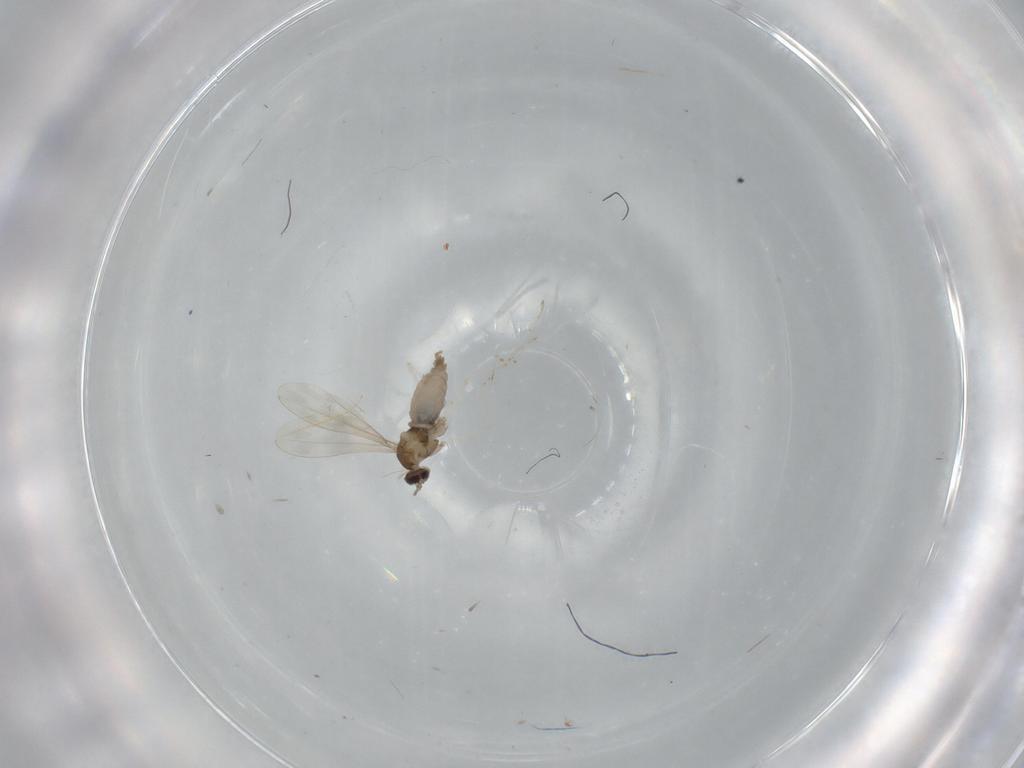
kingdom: Animalia
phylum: Arthropoda
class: Insecta
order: Diptera
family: Cecidomyiidae
